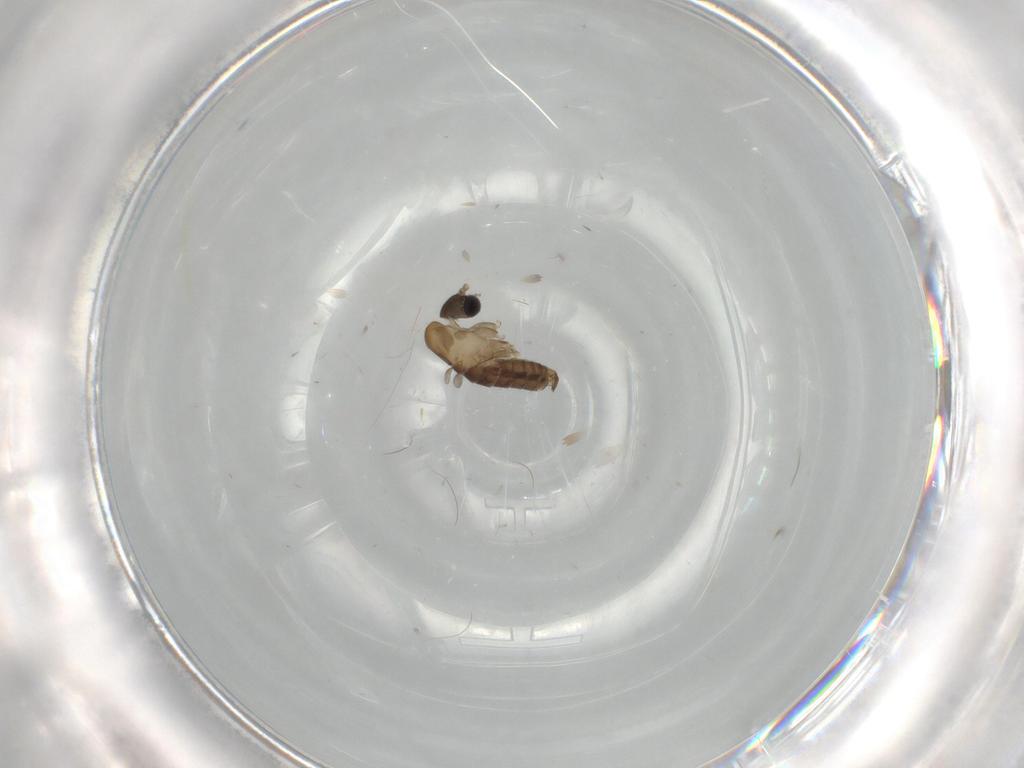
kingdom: Animalia
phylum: Arthropoda
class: Insecta
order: Diptera
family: Psychodidae
